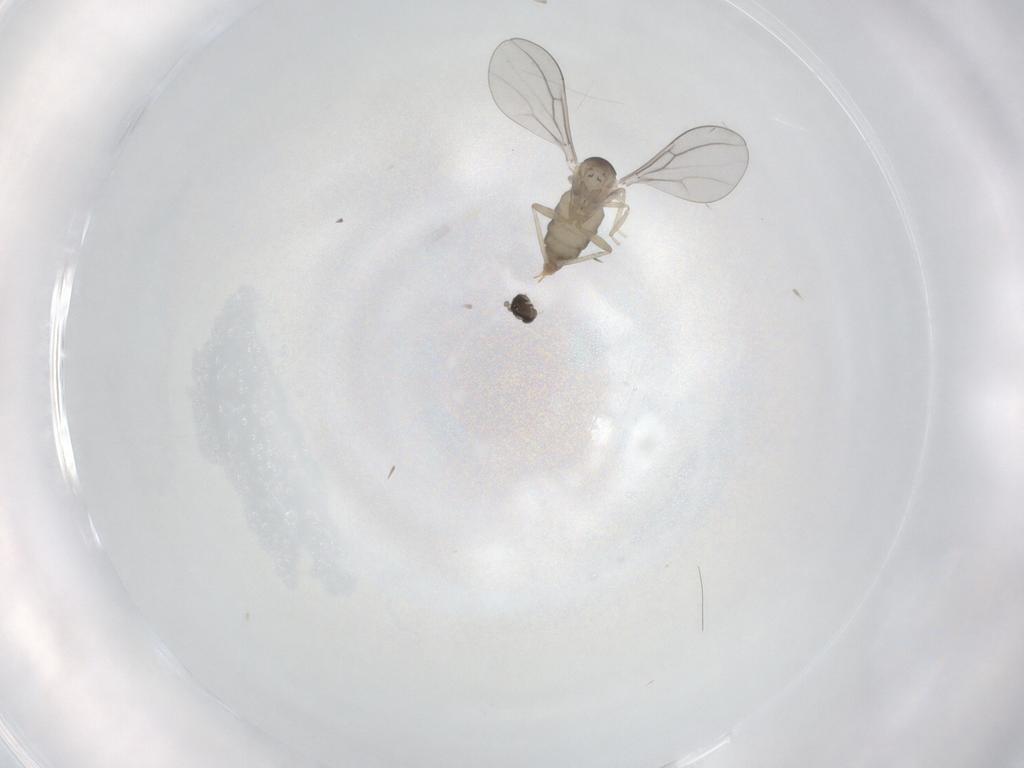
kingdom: Animalia
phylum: Arthropoda
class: Insecta
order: Diptera
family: Cecidomyiidae
